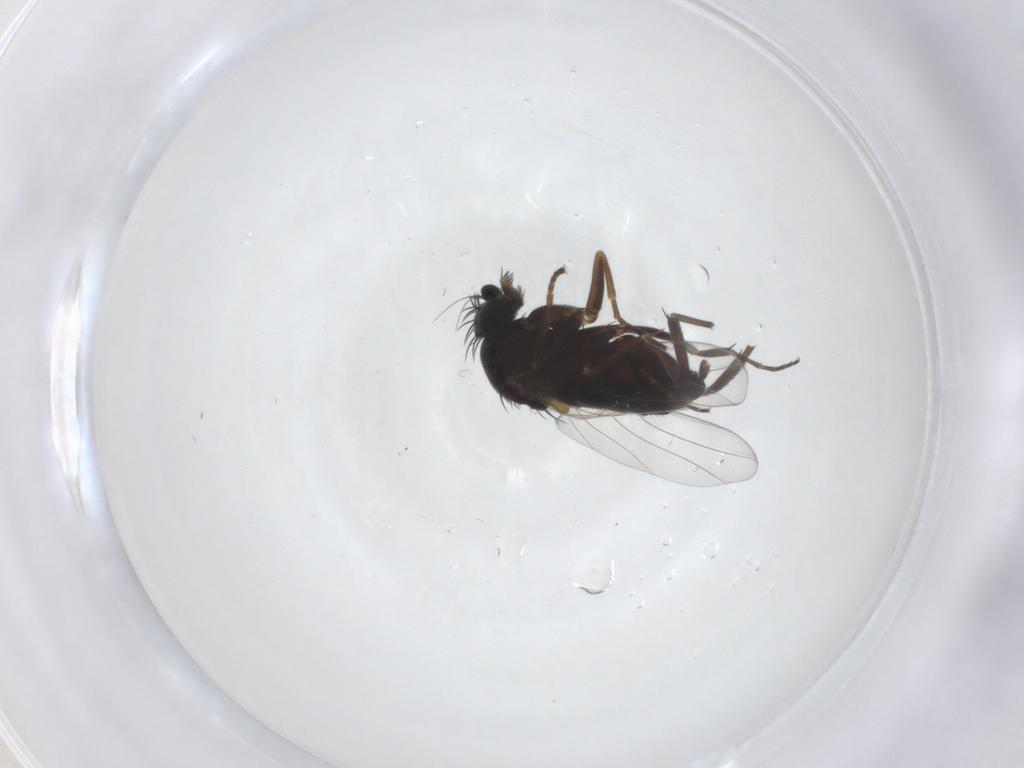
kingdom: Animalia
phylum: Arthropoda
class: Insecta
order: Diptera
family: Phoridae
